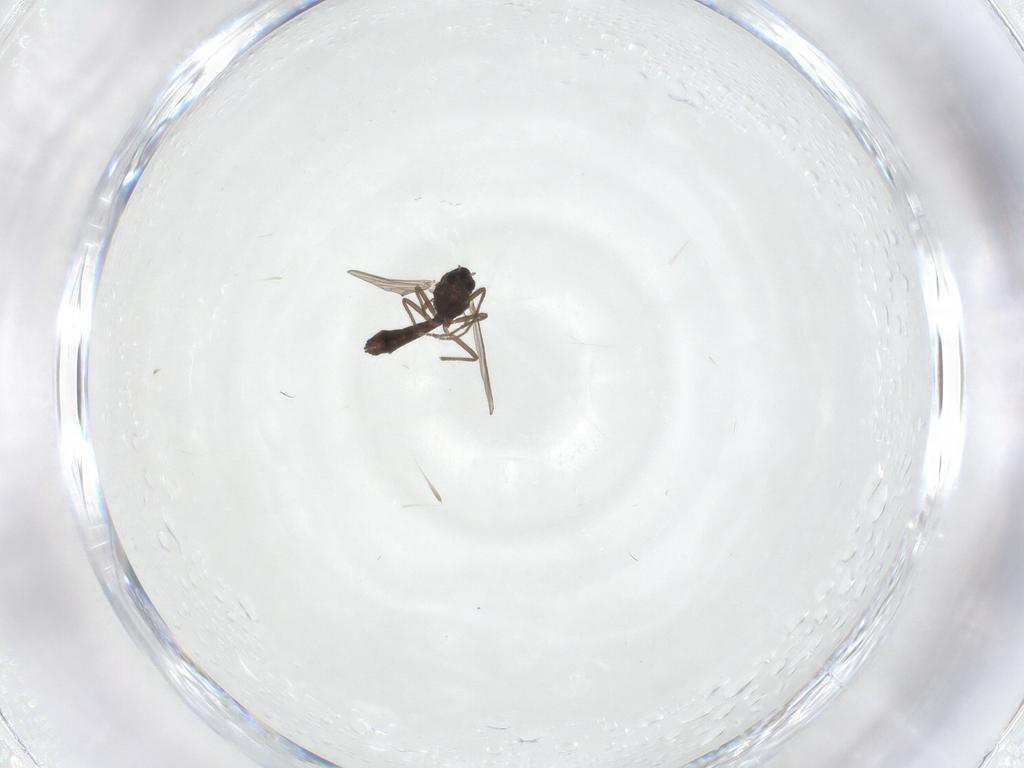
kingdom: Animalia
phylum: Arthropoda
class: Insecta
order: Diptera
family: Chironomidae
